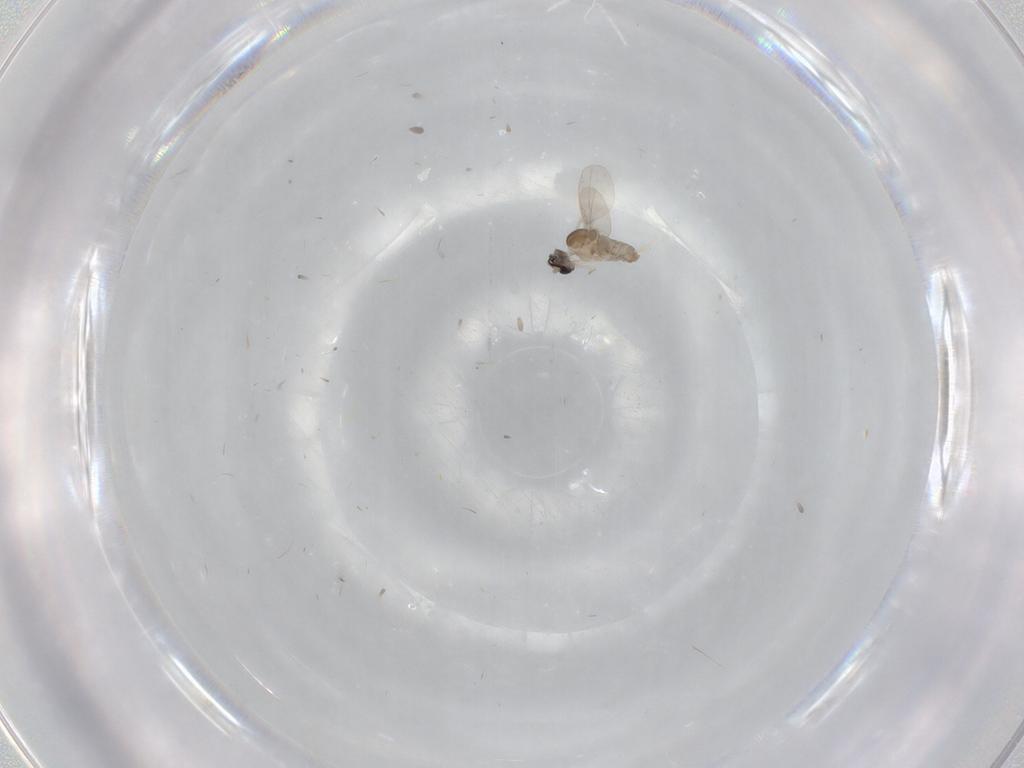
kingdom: Animalia
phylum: Arthropoda
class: Insecta
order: Diptera
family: Cecidomyiidae
